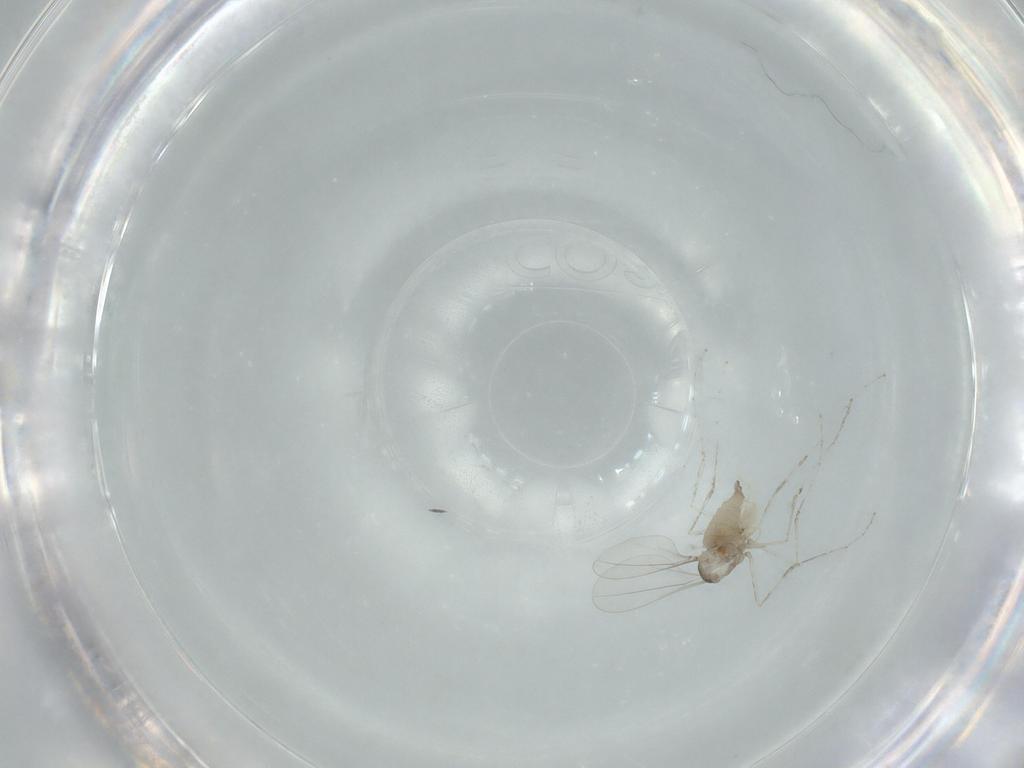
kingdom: Animalia
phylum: Arthropoda
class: Insecta
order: Diptera
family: Cecidomyiidae
